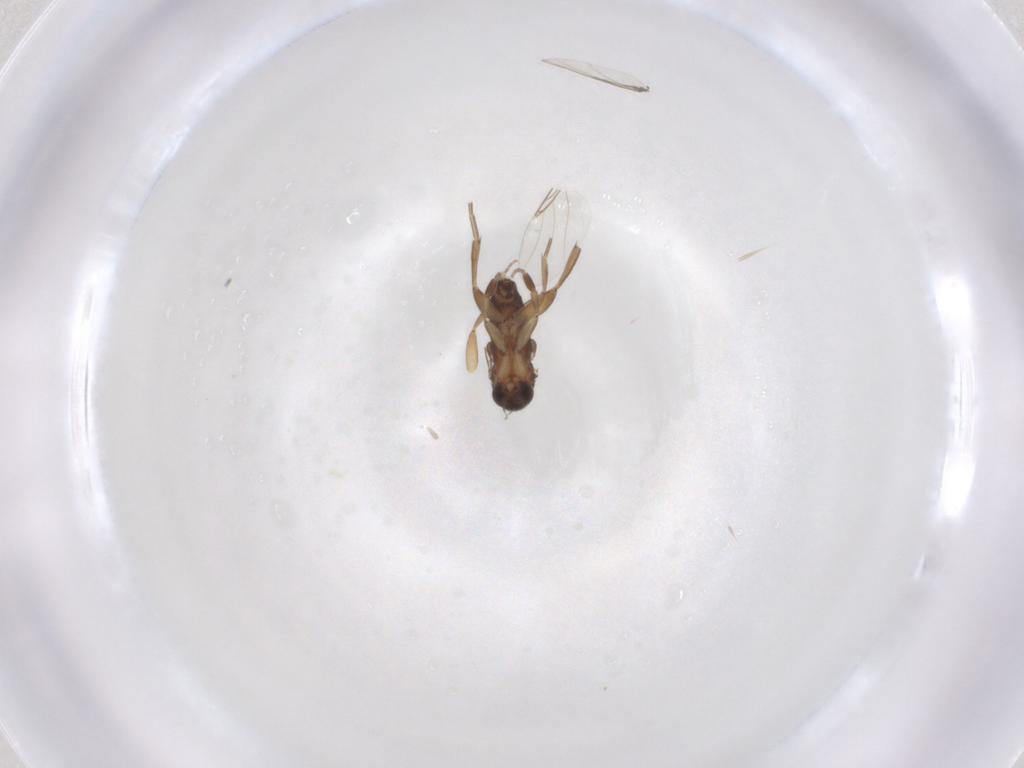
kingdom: Animalia
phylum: Arthropoda
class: Insecta
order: Diptera
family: Phoridae
